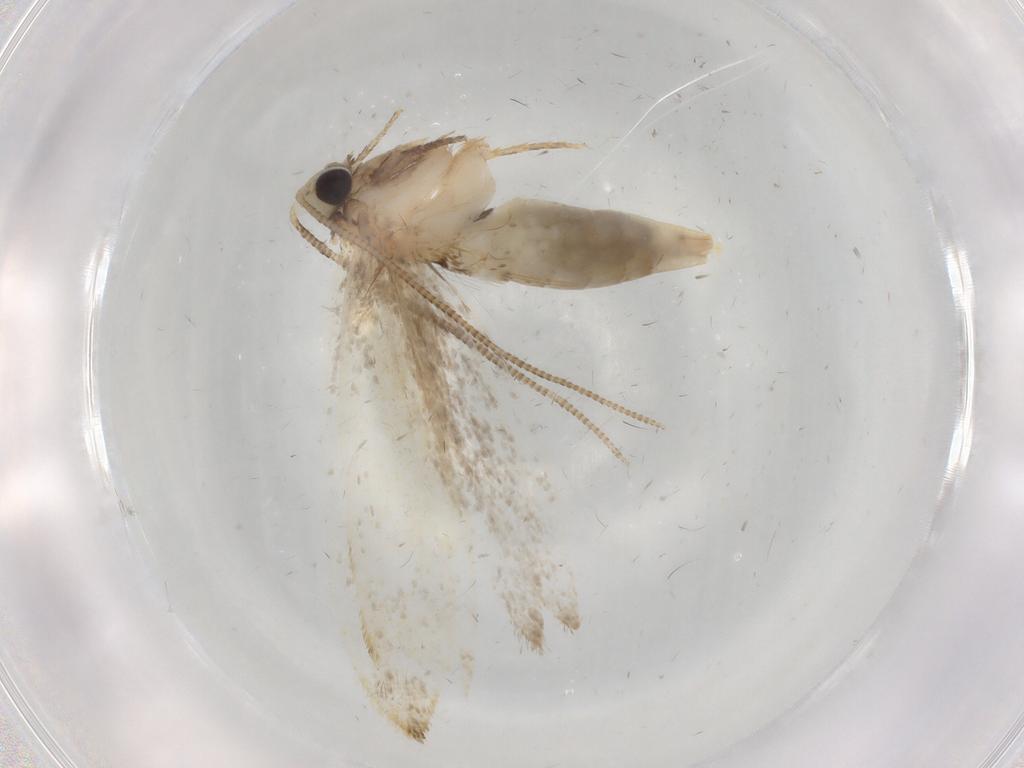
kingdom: Animalia
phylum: Arthropoda
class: Insecta
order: Lepidoptera
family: Tineidae
